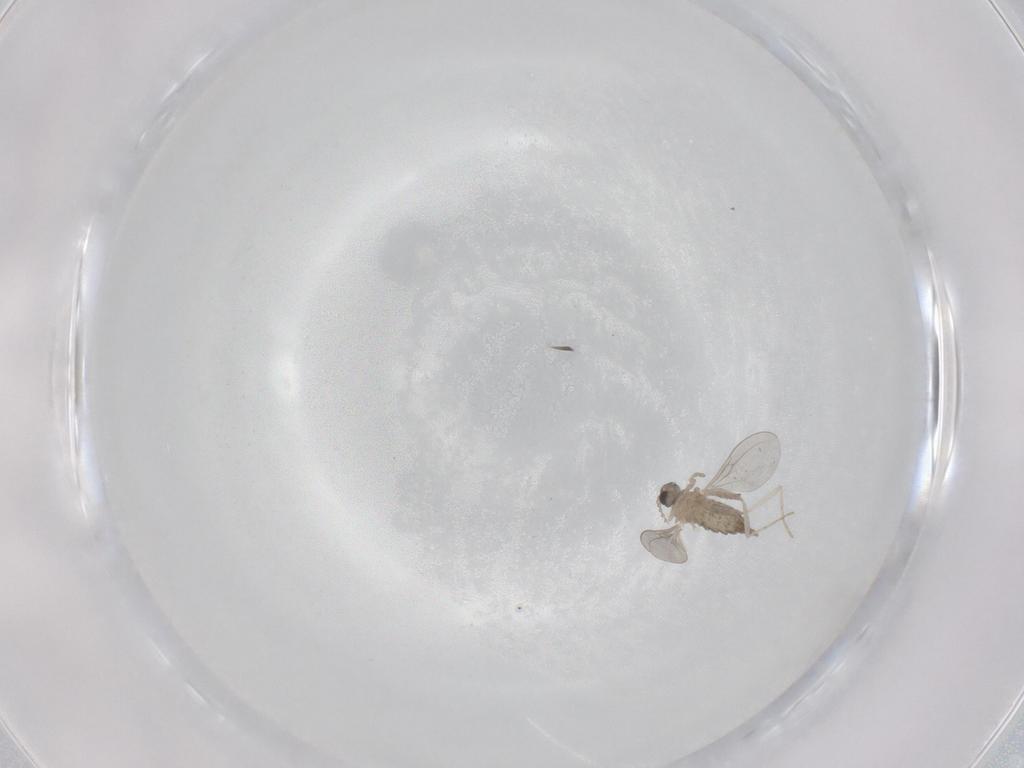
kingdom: Animalia
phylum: Arthropoda
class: Insecta
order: Diptera
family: Cecidomyiidae
